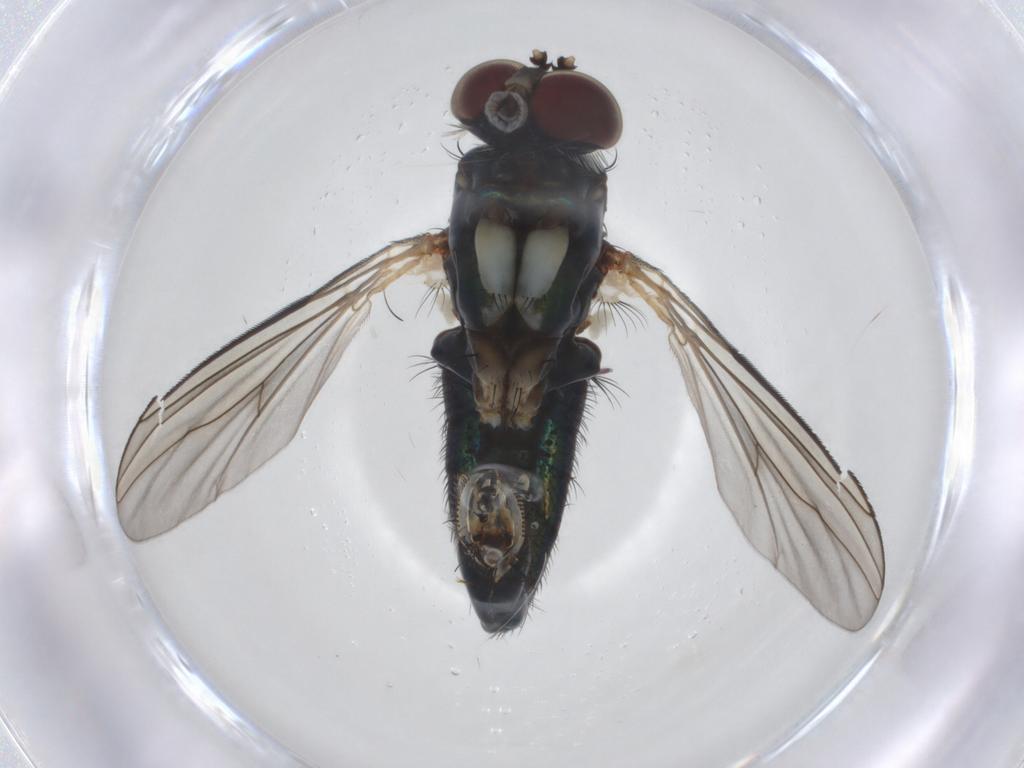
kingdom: Animalia
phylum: Arthropoda
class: Insecta
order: Diptera
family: Dolichopodidae
